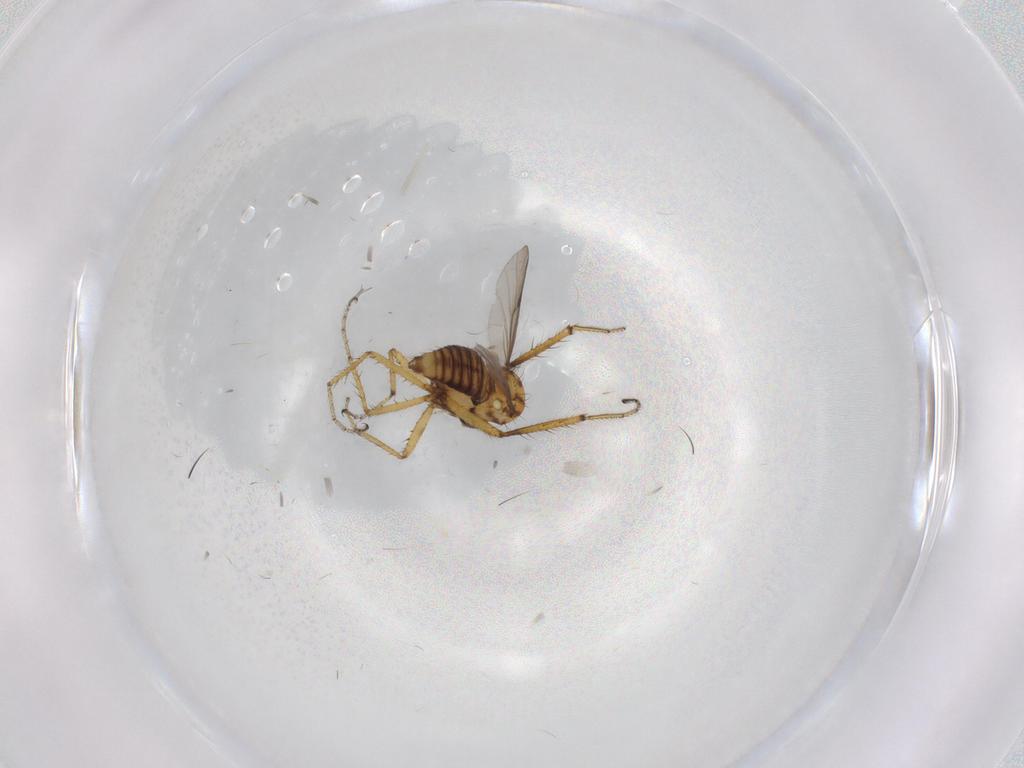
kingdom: Animalia
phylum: Arthropoda
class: Insecta
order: Diptera
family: Ceratopogonidae
